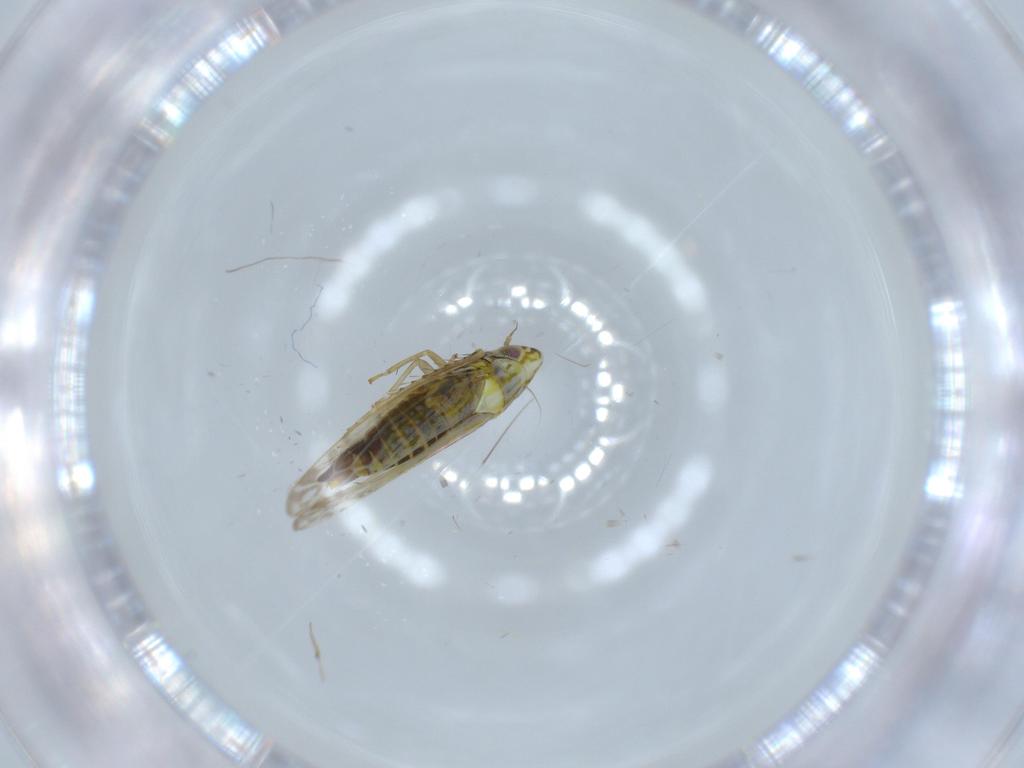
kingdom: Animalia
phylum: Arthropoda
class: Insecta
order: Hemiptera
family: Cicadellidae
